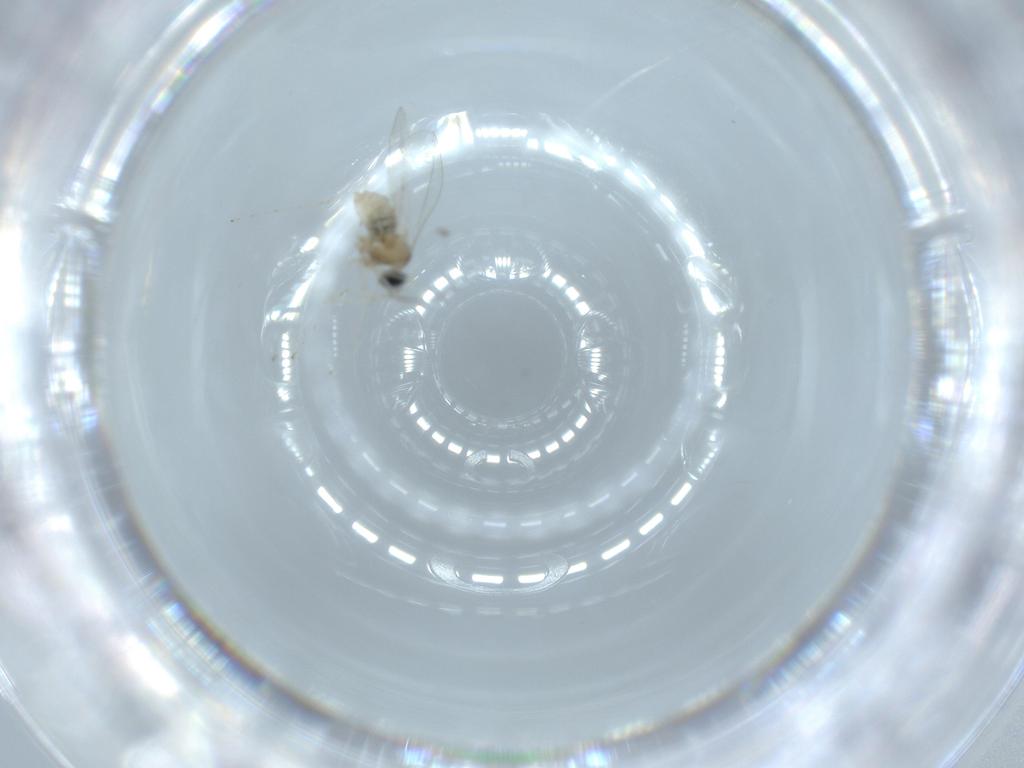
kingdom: Animalia
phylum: Arthropoda
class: Insecta
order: Diptera
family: Cecidomyiidae
